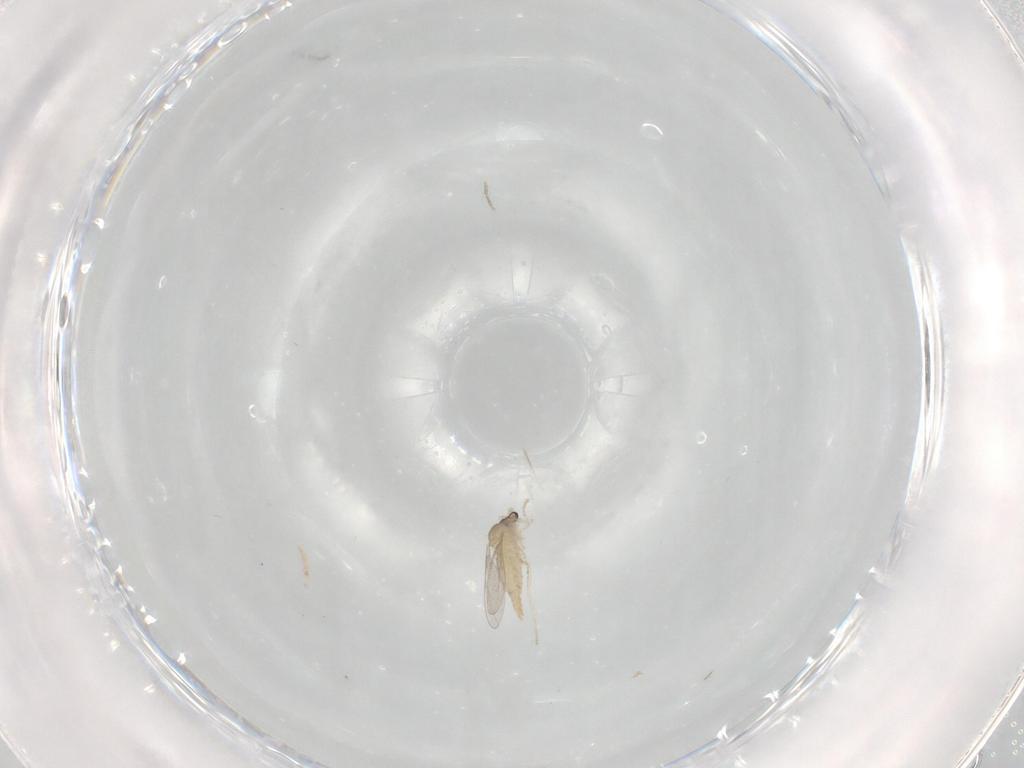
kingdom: Animalia
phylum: Arthropoda
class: Insecta
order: Diptera
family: Cecidomyiidae
